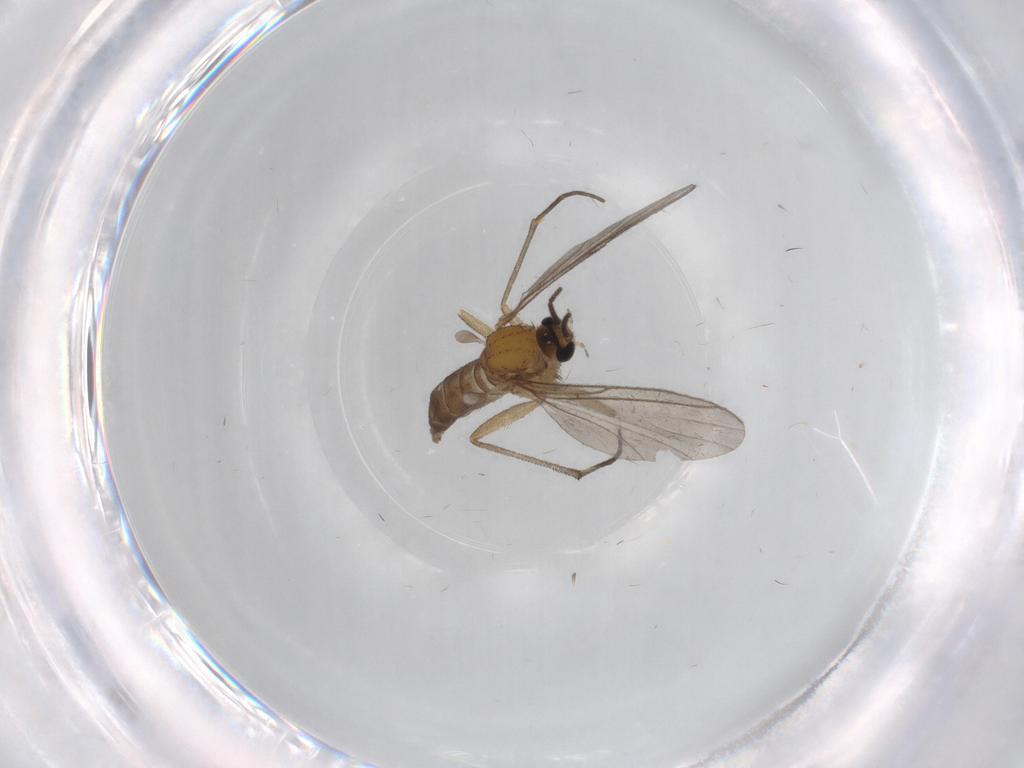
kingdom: Animalia
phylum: Arthropoda
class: Insecta
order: Diptera
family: Sciaridae
